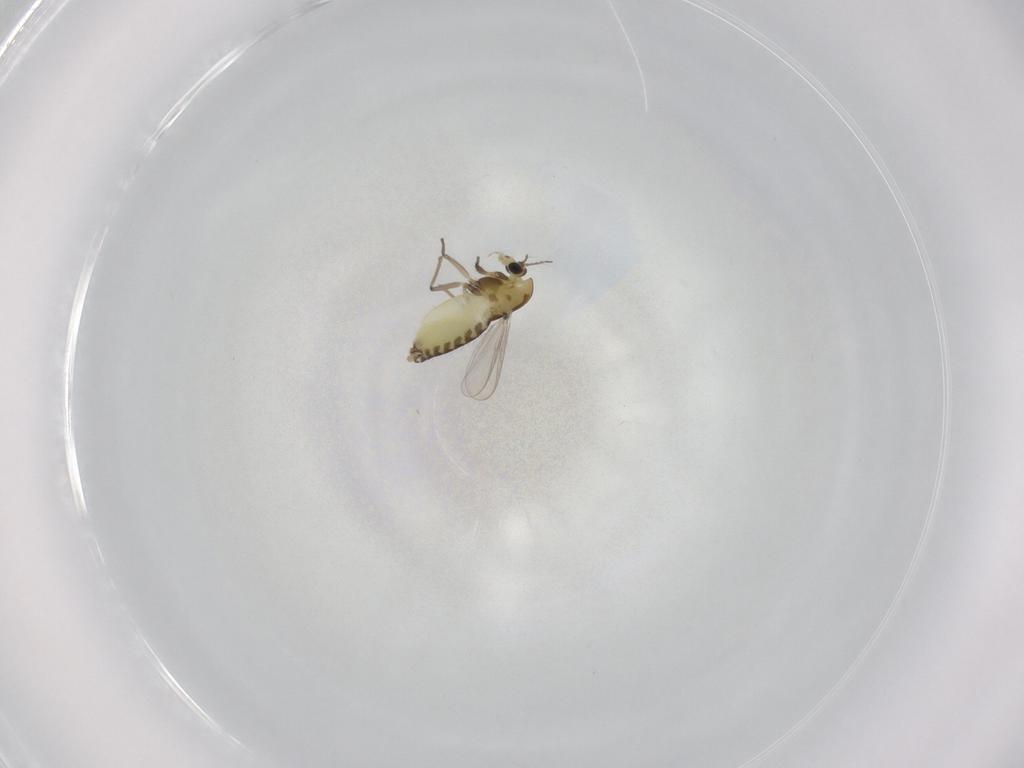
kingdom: Animalia
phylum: Arthropoda
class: Insecta
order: Diptera
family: Chironomidae
